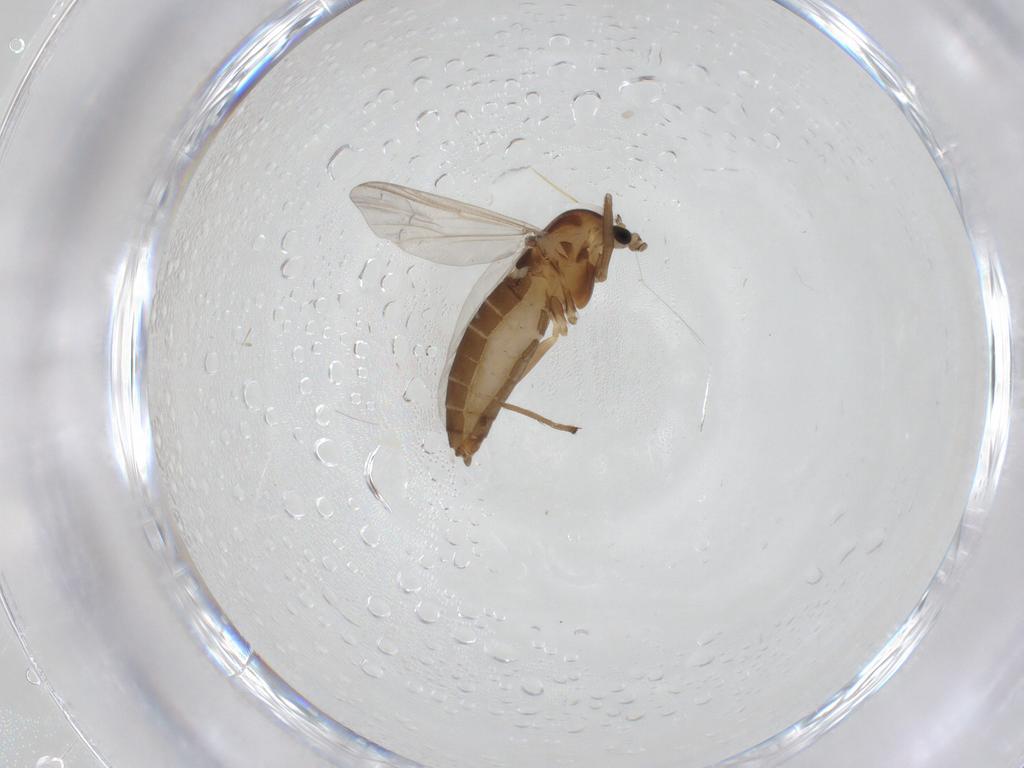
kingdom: Animalia
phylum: Arthropoda
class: Insecta
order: Diptera
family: Chironomidae
